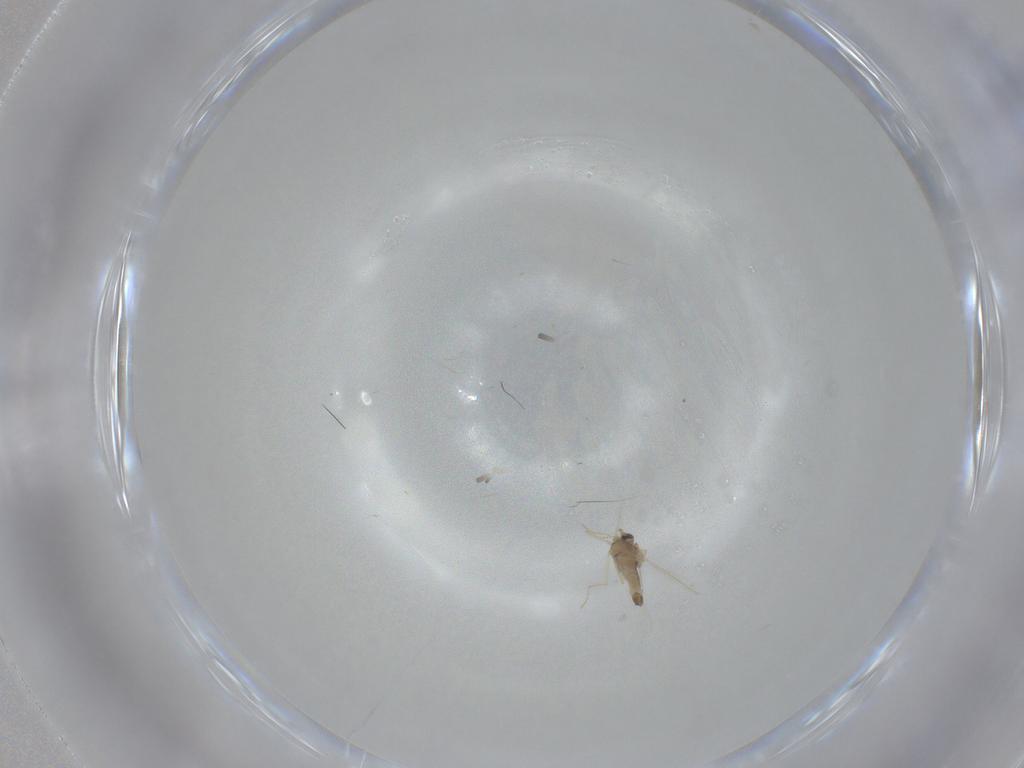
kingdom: Animalia
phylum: Arthropoda
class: Insecta
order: Diptera
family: Chironomidae
